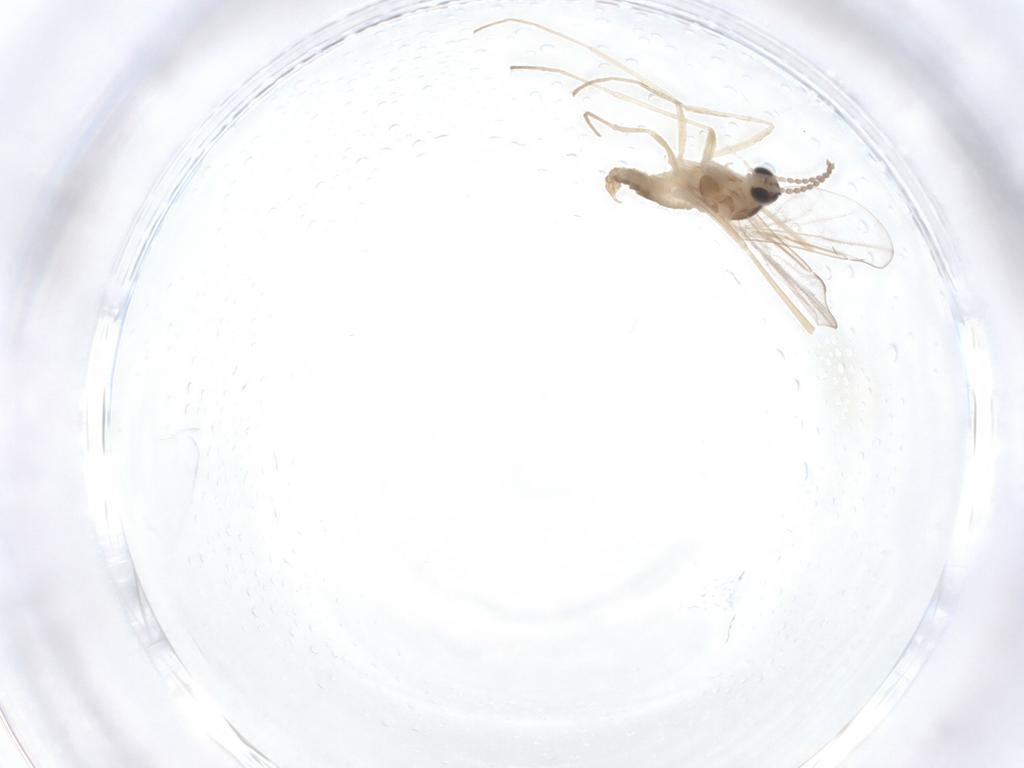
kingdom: Animalia
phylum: Arthropoda
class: Insecta
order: Diptera
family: Cecidomyiidae
